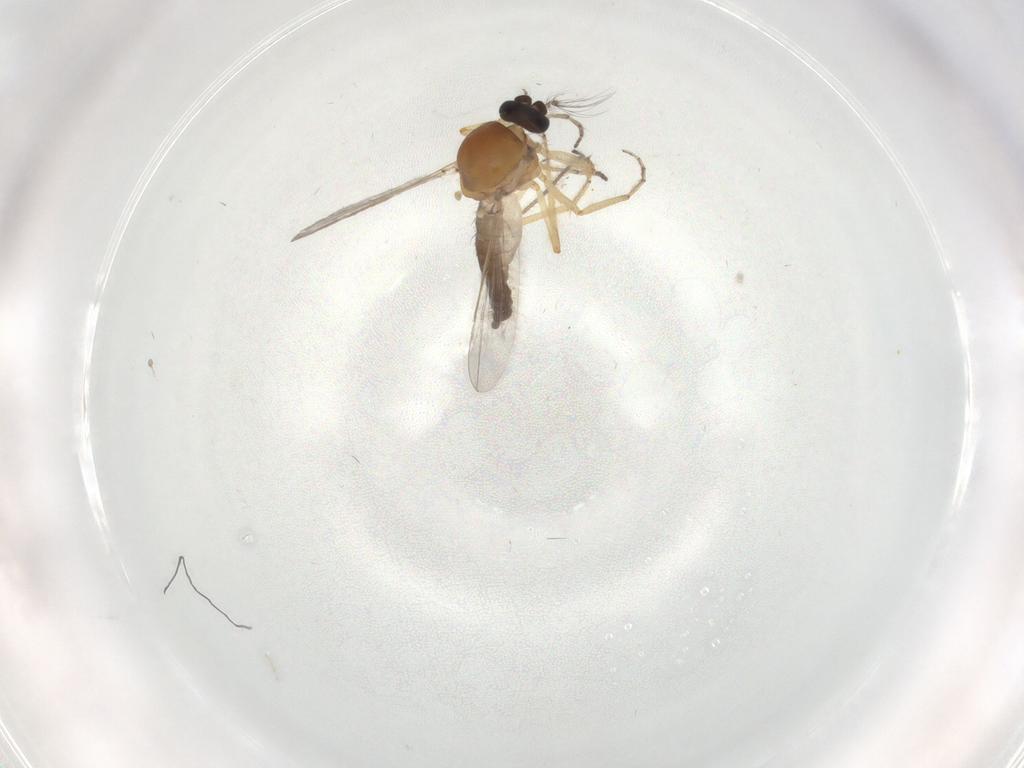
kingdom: Animalia
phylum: Arthropoda
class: Insecta
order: Diptera
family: Ceratopogonidae
